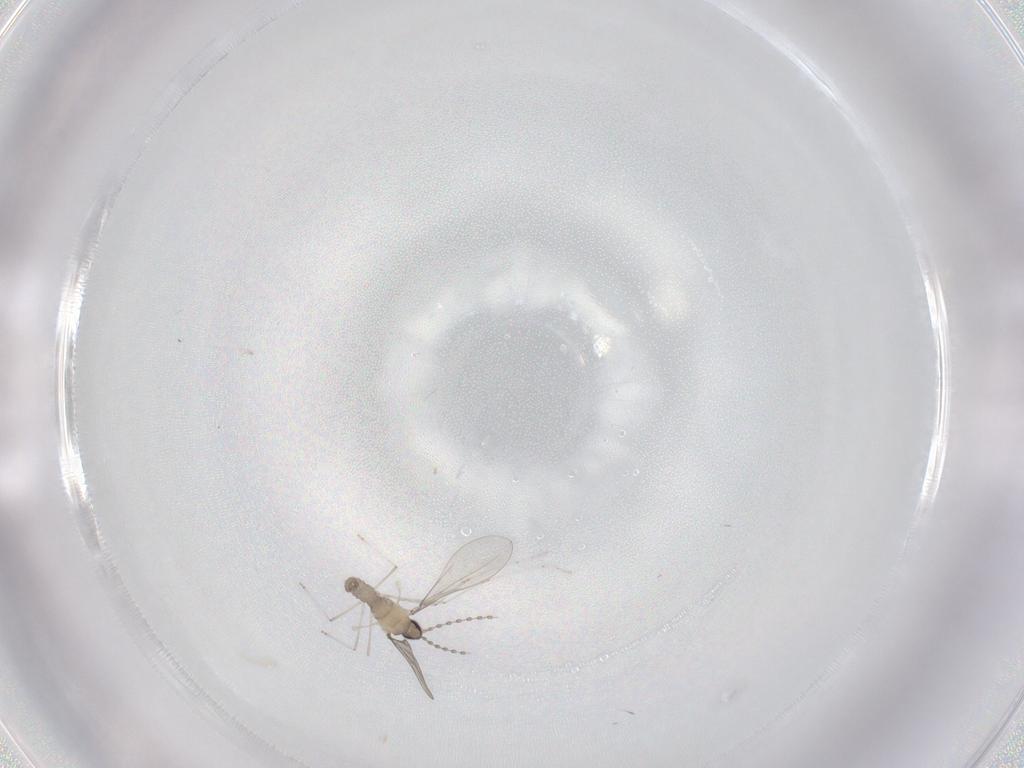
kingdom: Animalia
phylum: Arthropoda
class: Insecta
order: Diptera
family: Cecidomyiidae
